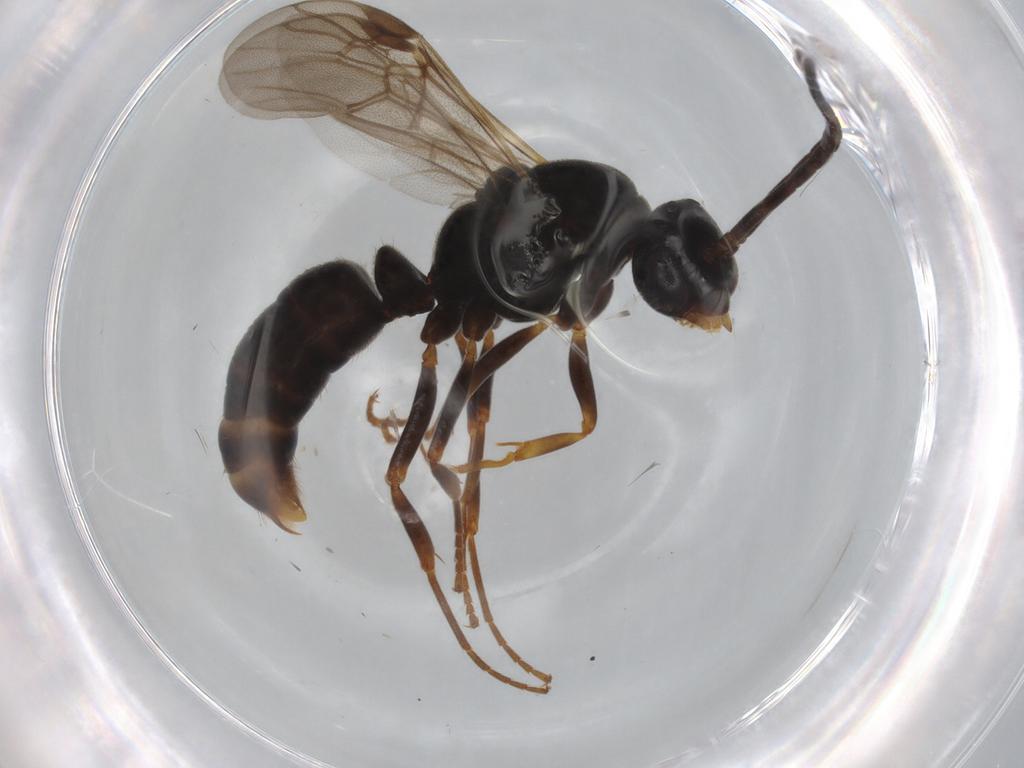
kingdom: Animalia
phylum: Arthropoda
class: Insecta
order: Hymenoptera
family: Formicidae
